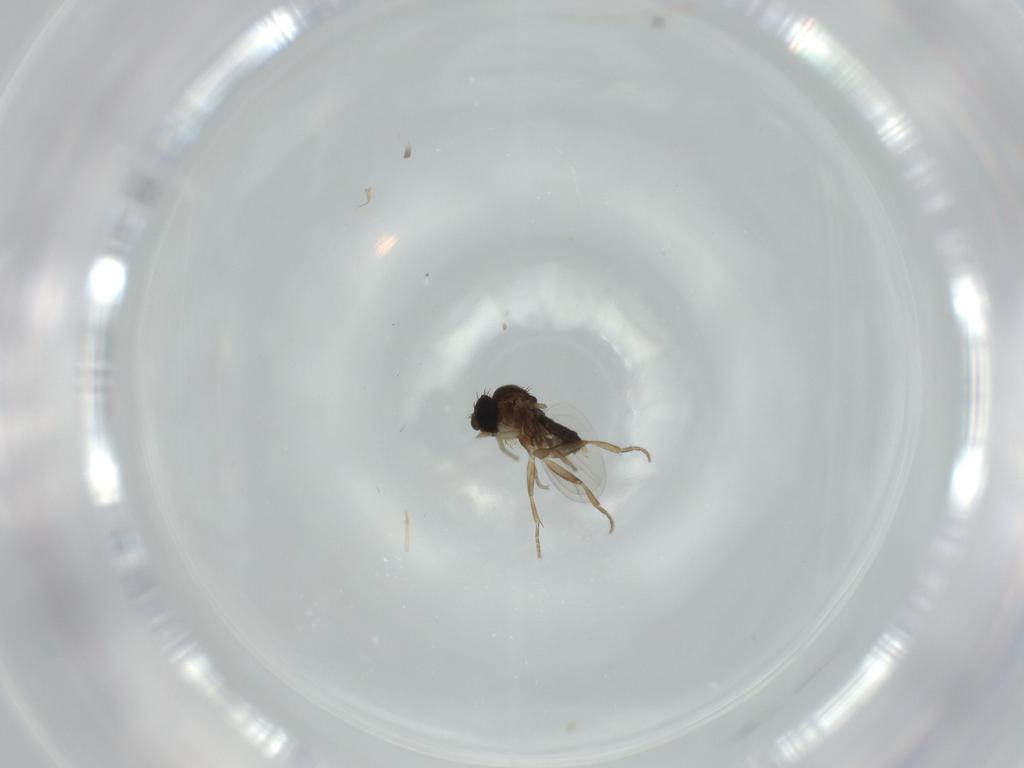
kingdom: Animalia
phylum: Arthropoda
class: Insecta
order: Diptera
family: Phoridae
